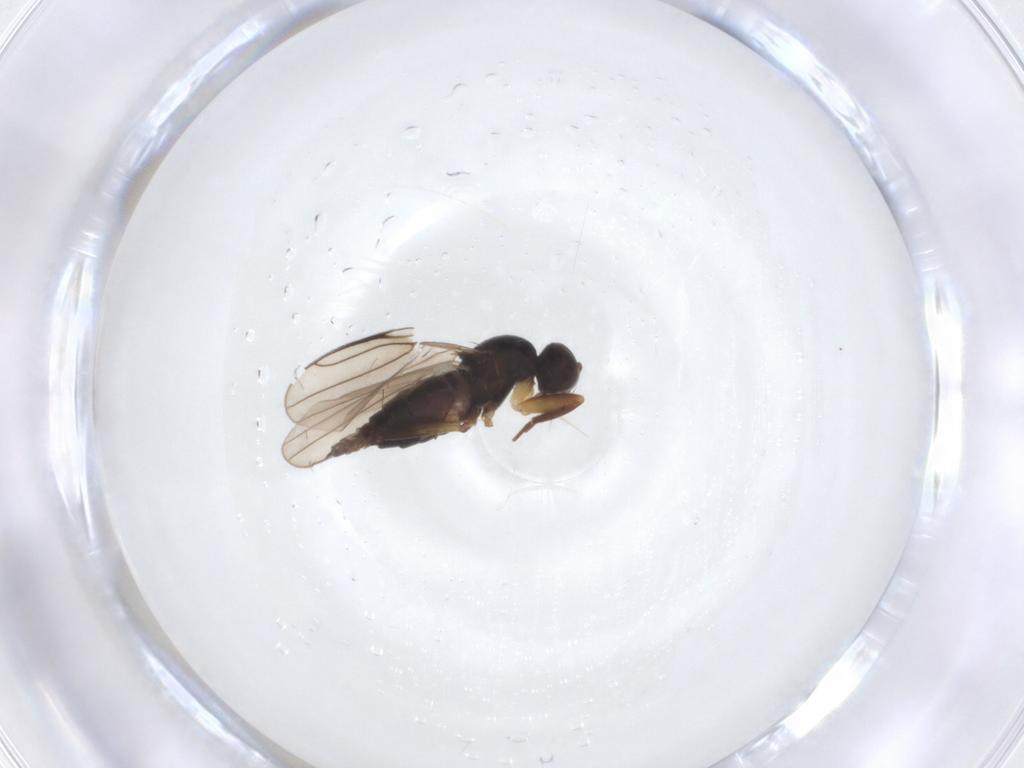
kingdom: Animalia
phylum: Arthropoda
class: Insecta
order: Diptera
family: Hybotidae
